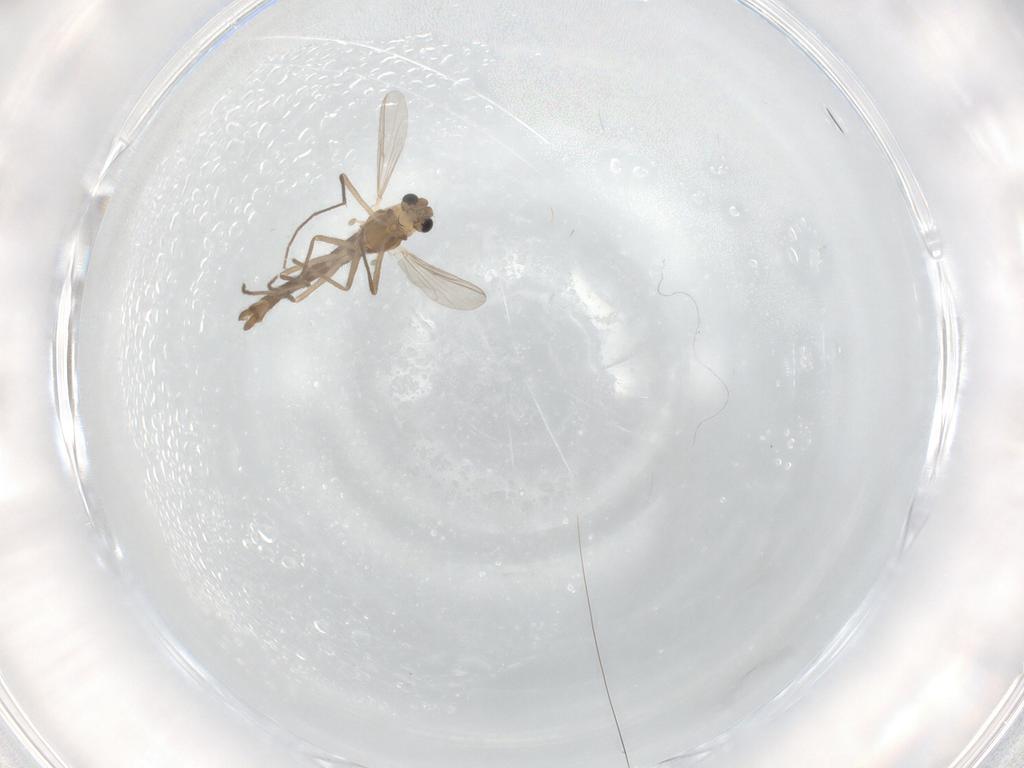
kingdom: Animalia
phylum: Arthropoda
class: Insecta
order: Diptera
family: Chironomidae
